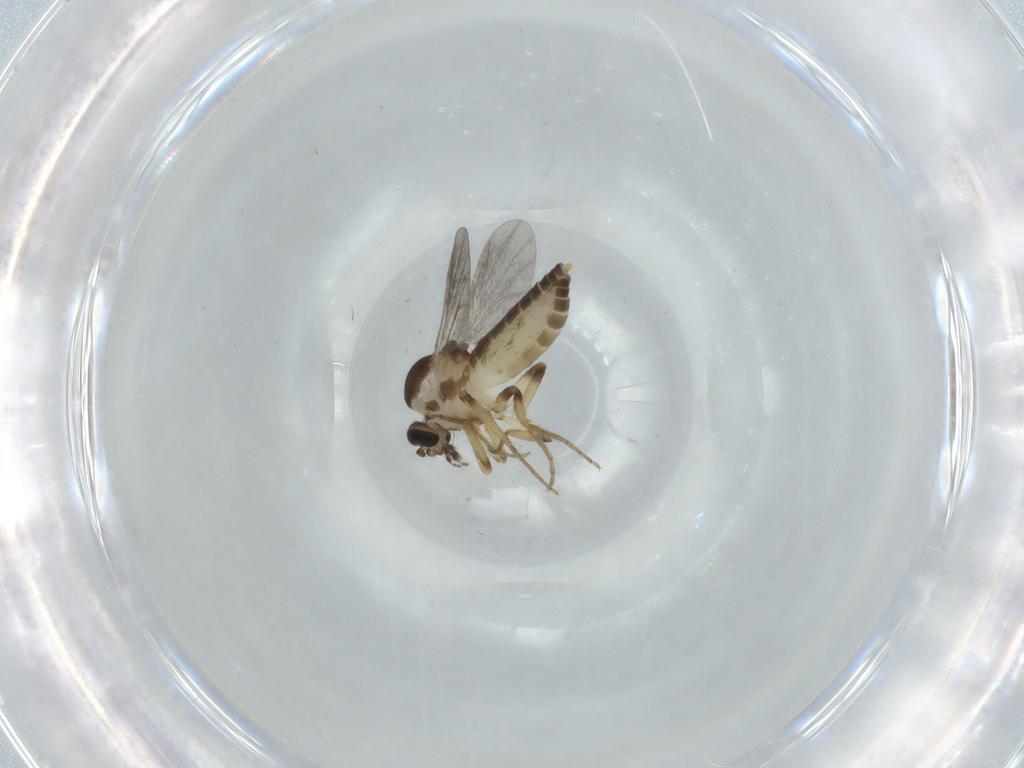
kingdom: Animalia
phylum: Arthropoda
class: Insecta
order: Diptera
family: Ceratopogonidae
